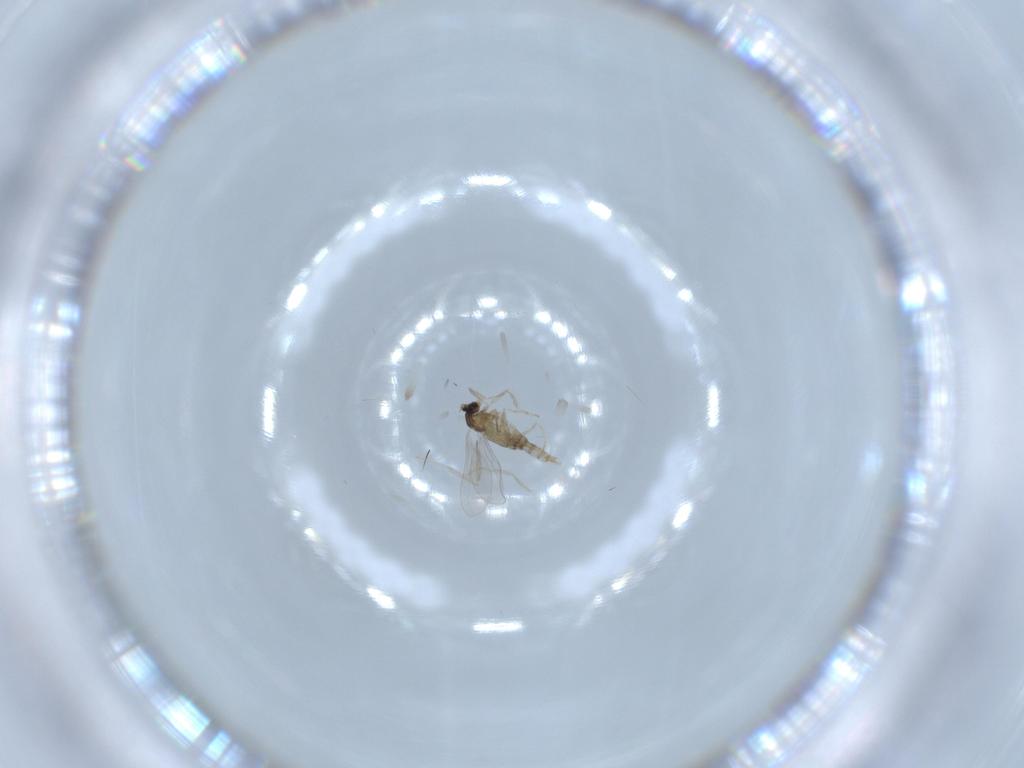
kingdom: Animalia
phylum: Arthropoda
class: Insecta
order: Diptera
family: Cecidomyiidae
